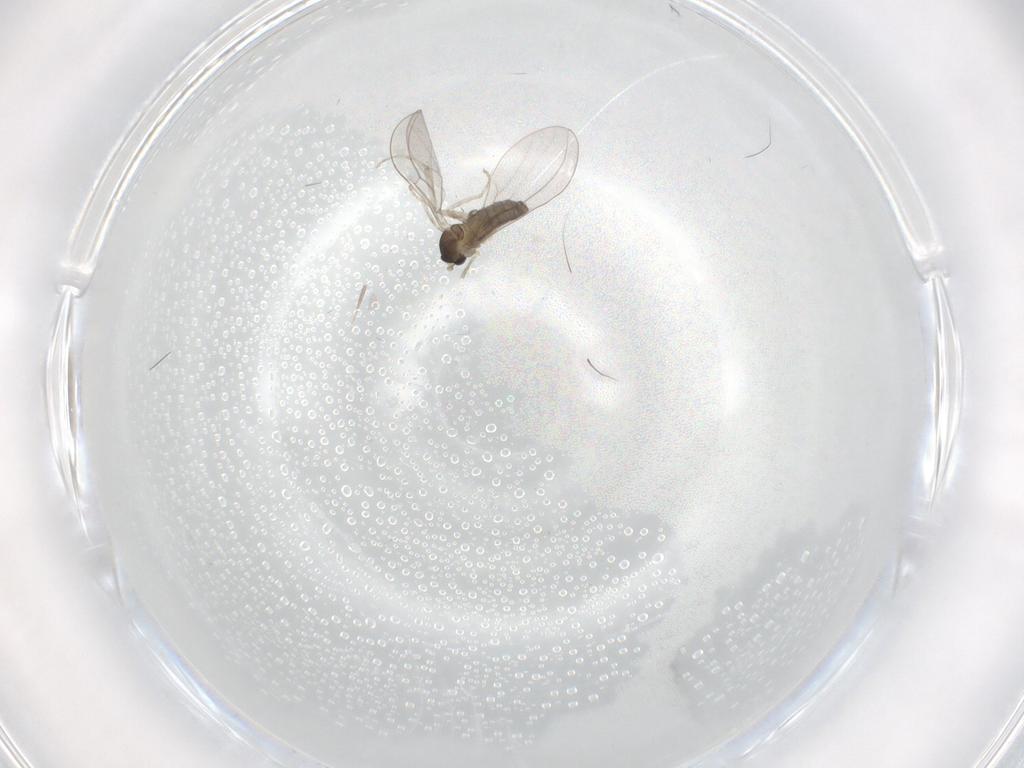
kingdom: Animalia
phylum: Arthropoda
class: Insecta
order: Diptera
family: Cecidomyiidae
